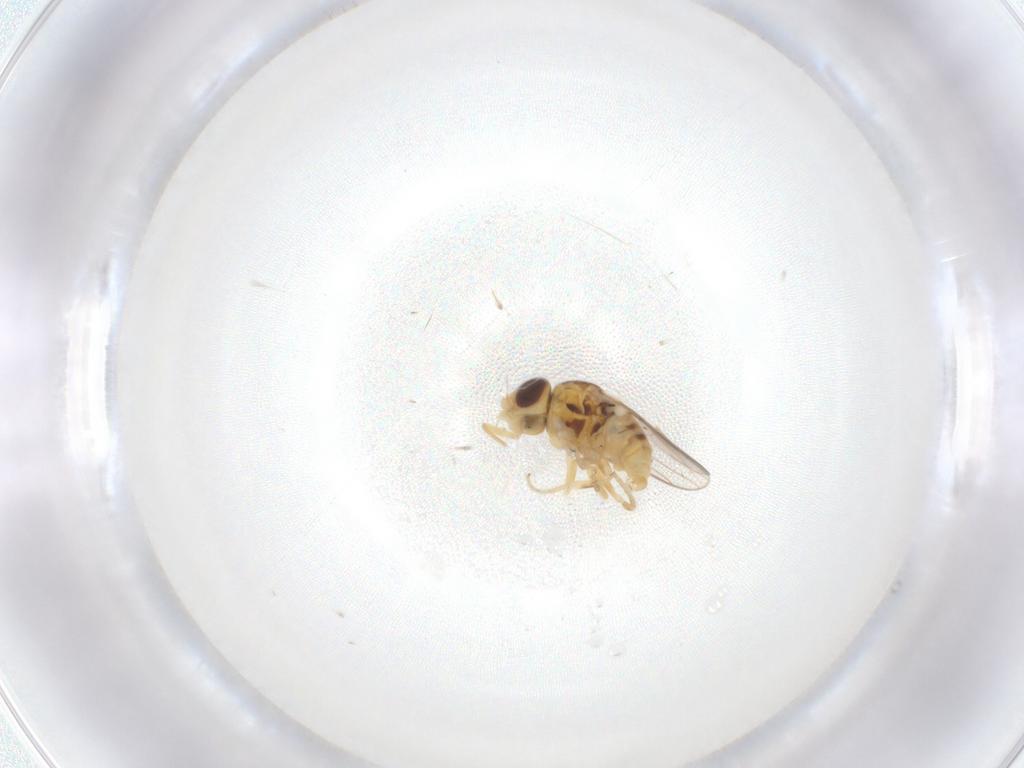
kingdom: Animalia
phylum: Arthropoda
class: Insecta
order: Diptera
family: Chloropidae
